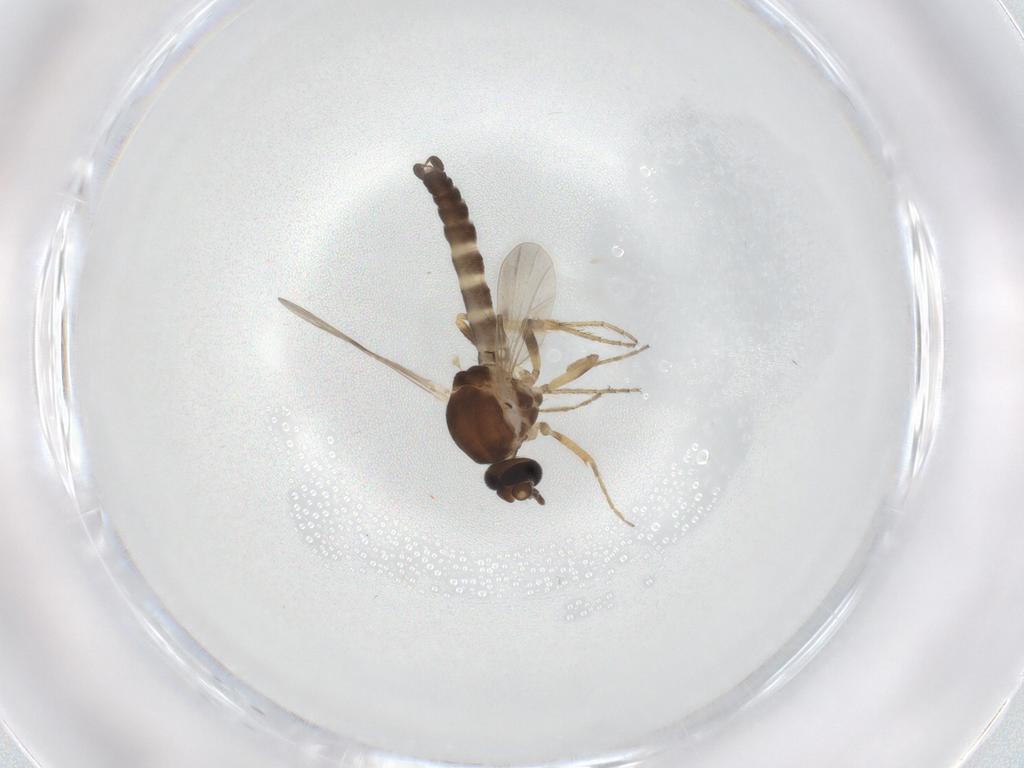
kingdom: Animalia
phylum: Arthropoda
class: Insecta
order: Diptera
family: Ceratopogonidae
